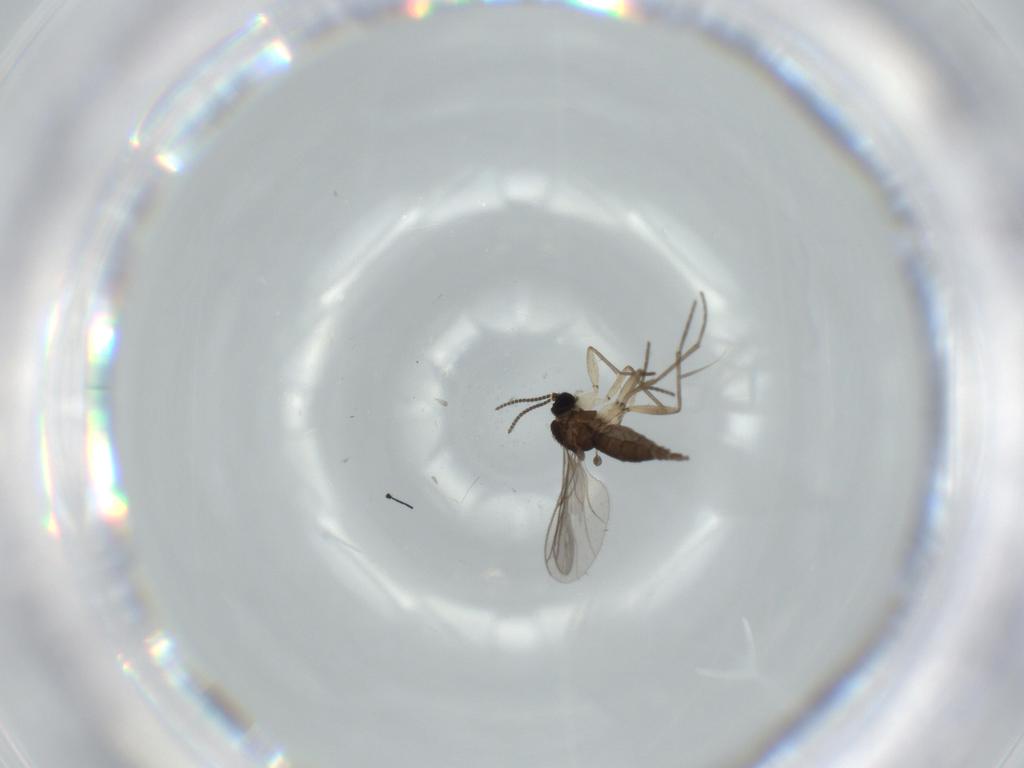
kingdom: Animalia
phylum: Arthropoda
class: Insecta
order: Diptera
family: Sciaridae
